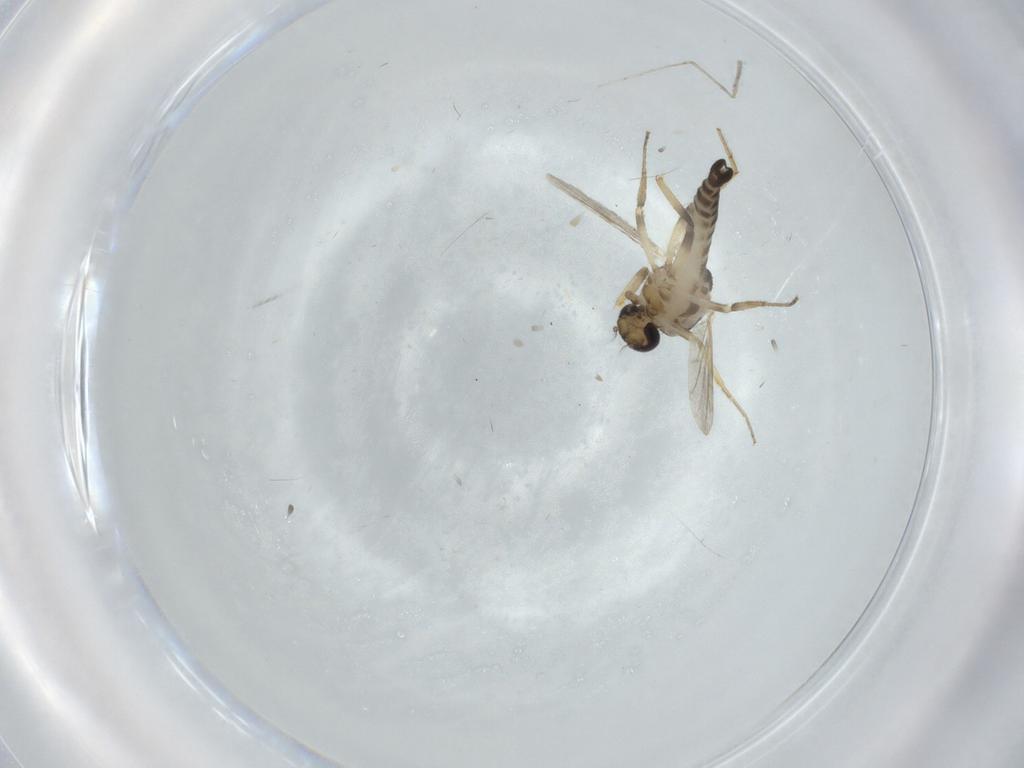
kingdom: Animalia
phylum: Arthropoda
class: Insecta
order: Diptera
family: Ceratopogonidae
